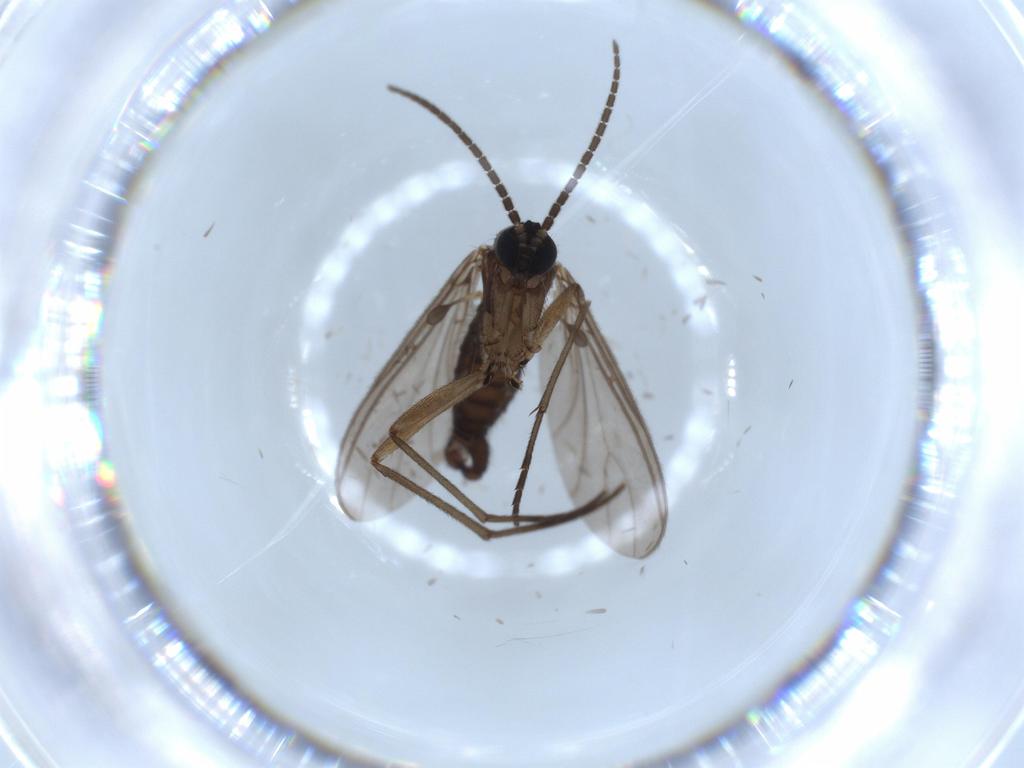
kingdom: Animalia
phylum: Arthropoda
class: Insecta
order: Diptera
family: Sciaridae
